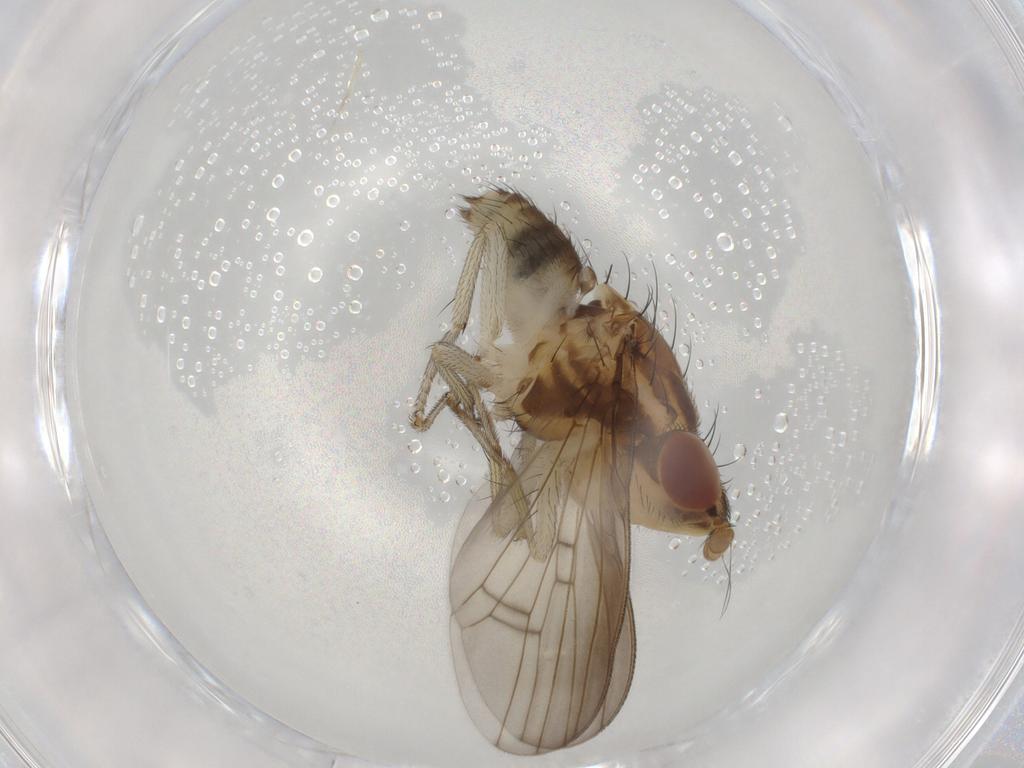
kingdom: Animalia
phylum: Arthropoda
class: Insecta
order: Diptera
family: Lauxaniidae
